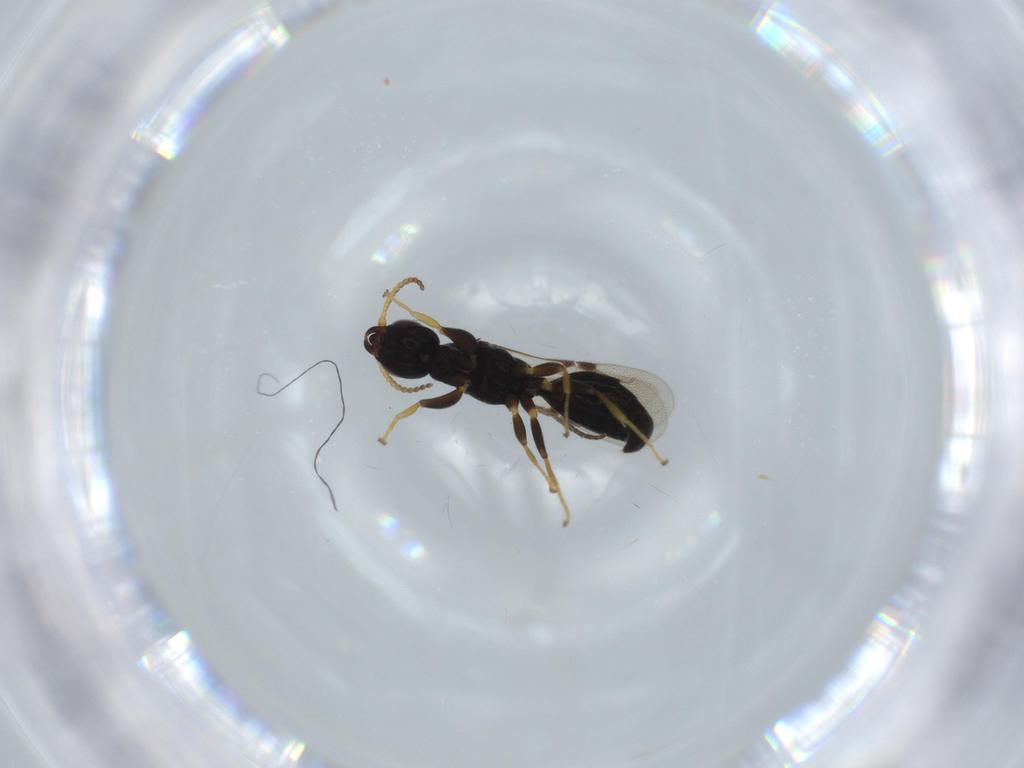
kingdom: Animalia
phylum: Arthropoda
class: Insecta
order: Hymenoptera
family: Bethylidae
